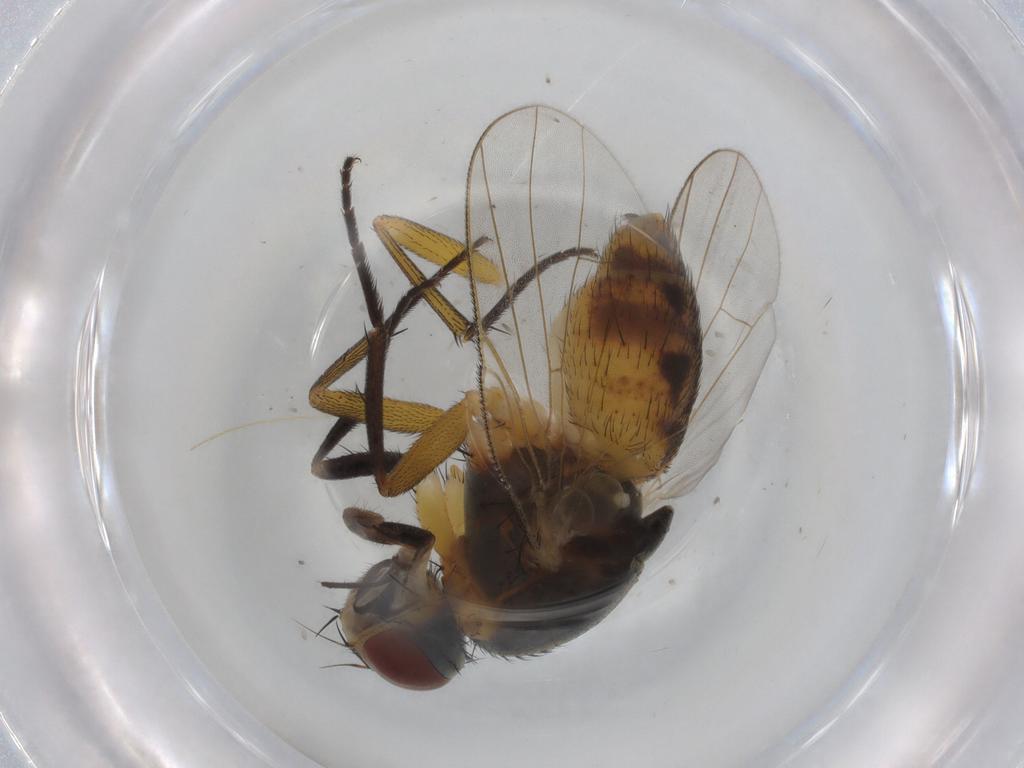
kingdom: Animalia
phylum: Arthropoda
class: Insecta
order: Diptera
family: Muscidae
